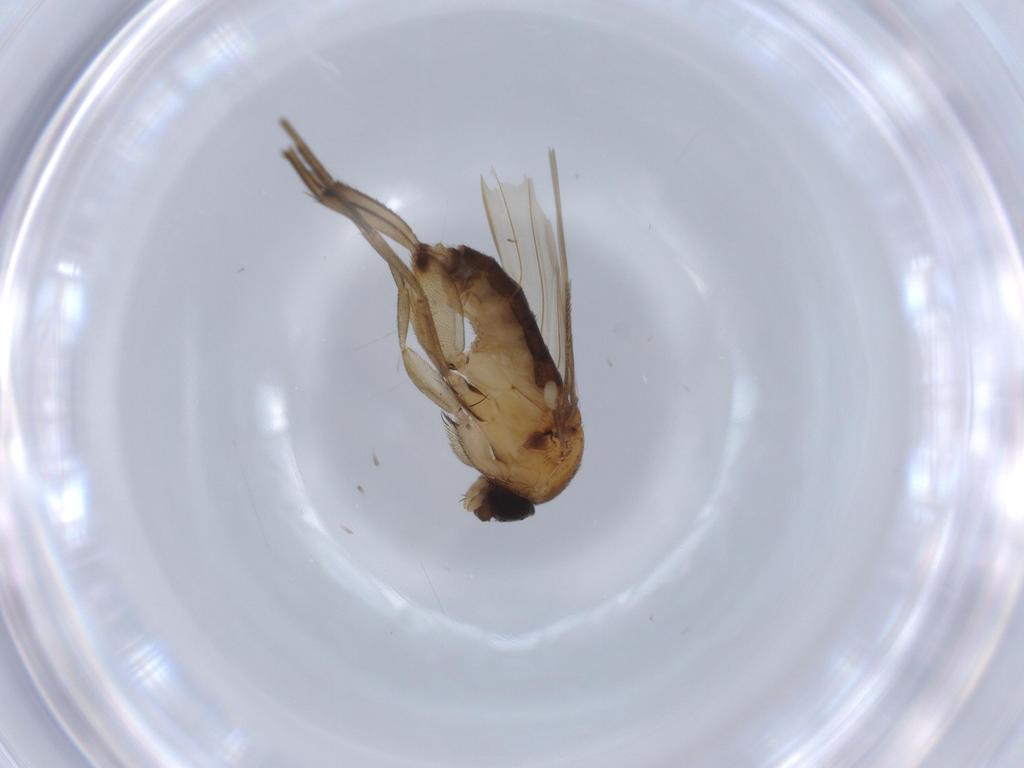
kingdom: Animalia
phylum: Arthropoda
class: Insecta
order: Diptera
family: Phoridae
